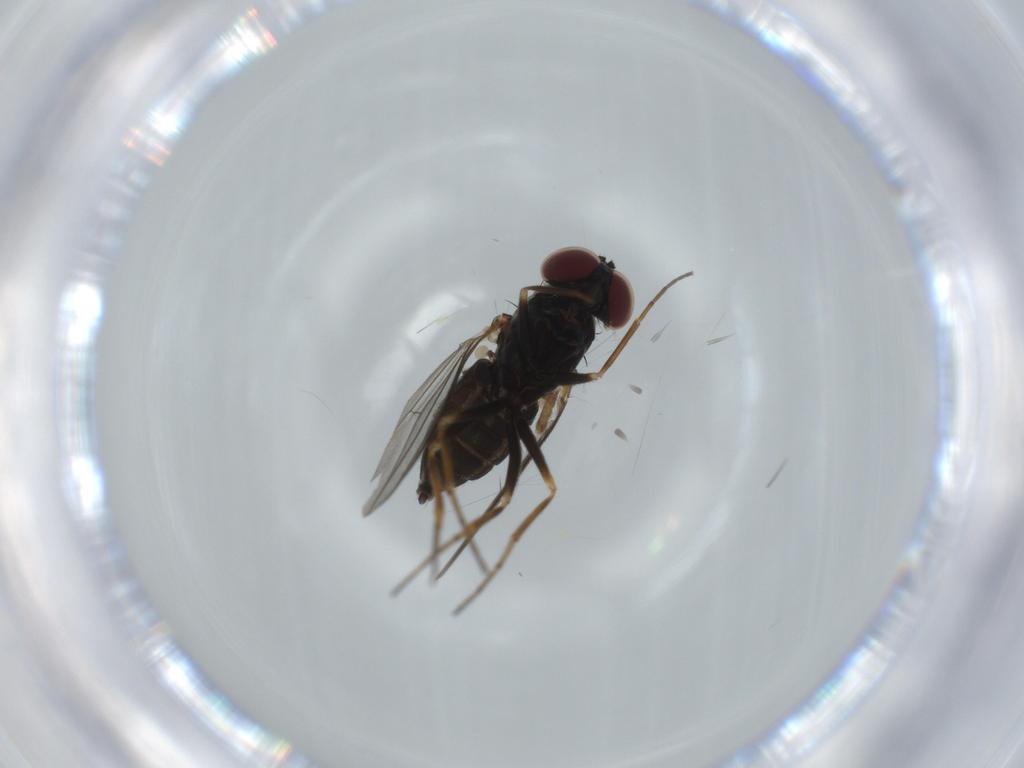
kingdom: Animalia
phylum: Arthropoda
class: Insecta
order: Diptera
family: Dolichopodidae
